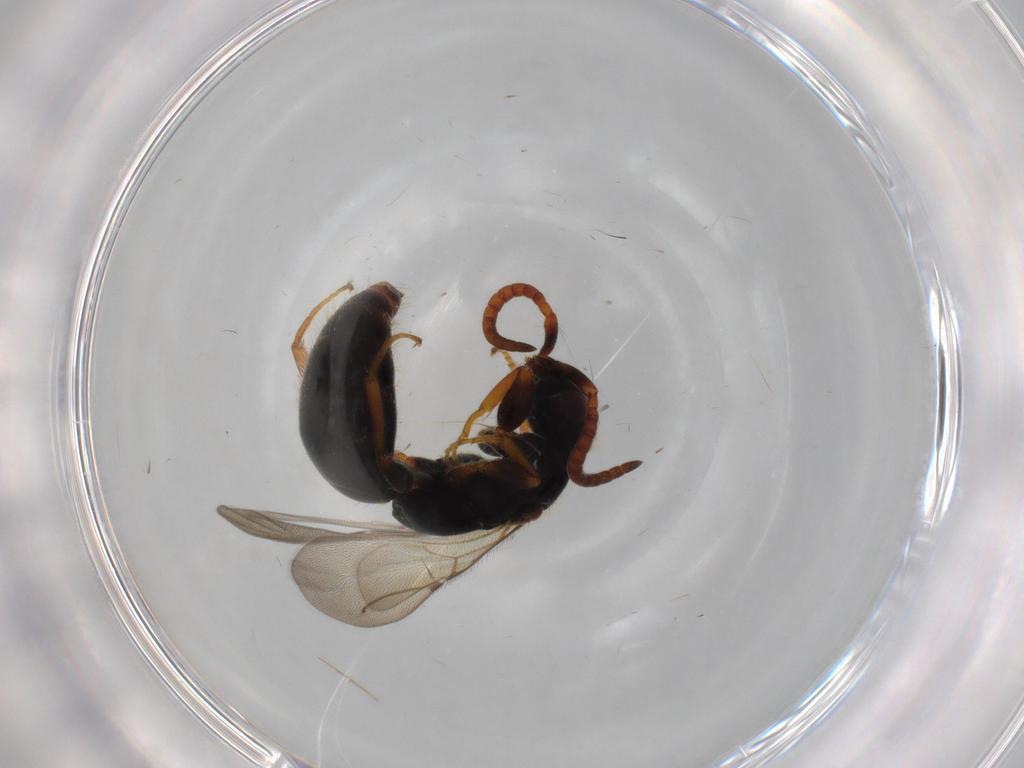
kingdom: Animalia
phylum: Arthropoda
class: Insecta
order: Hymenoptera
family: Bethylidae
